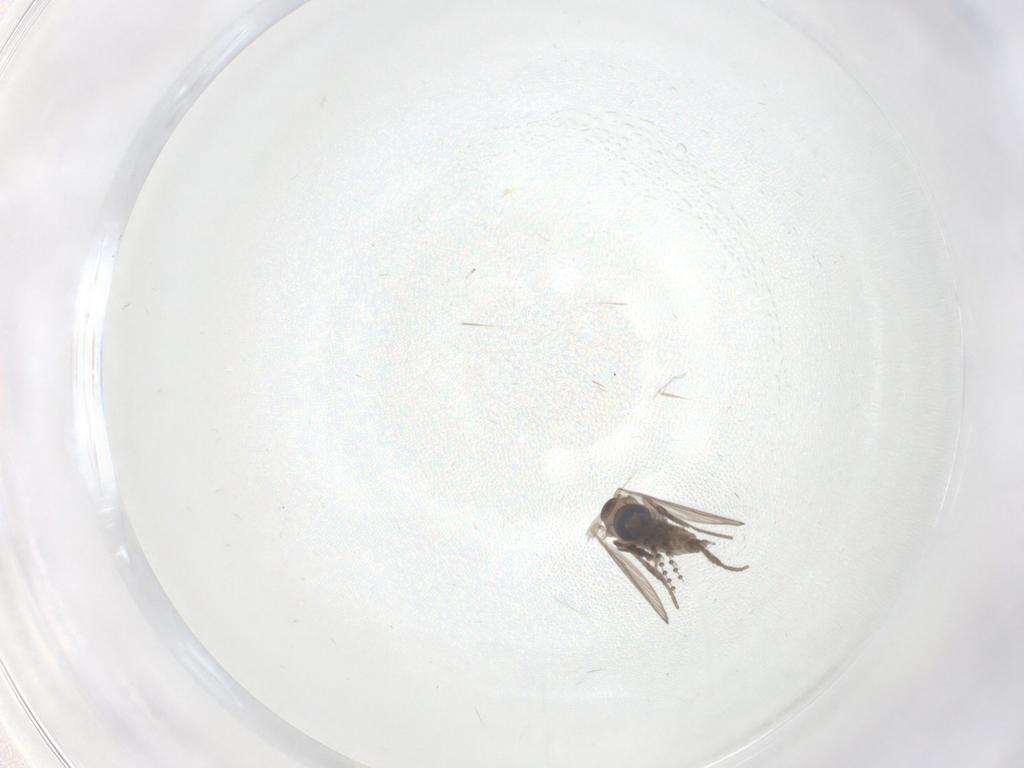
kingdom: Animalia
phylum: Arthropoda
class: Insecta
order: Diptera
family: Psychodidae
